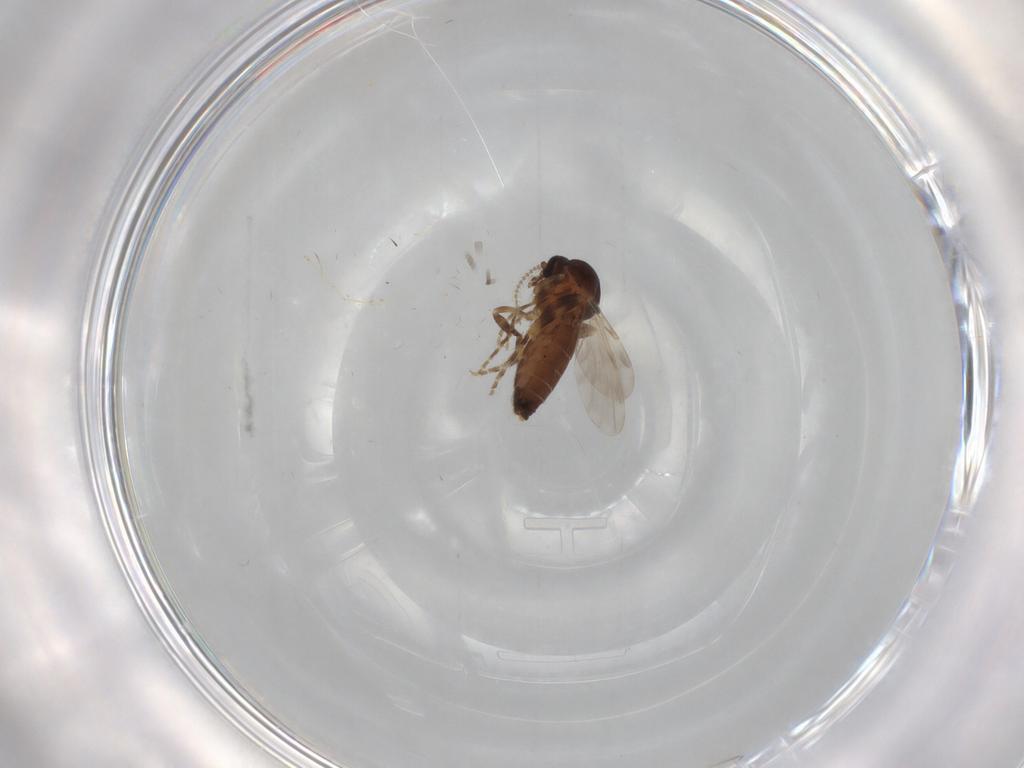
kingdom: Animalia
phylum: Arthropoda
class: Insecta
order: Diptera
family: Ceratopogonidae
